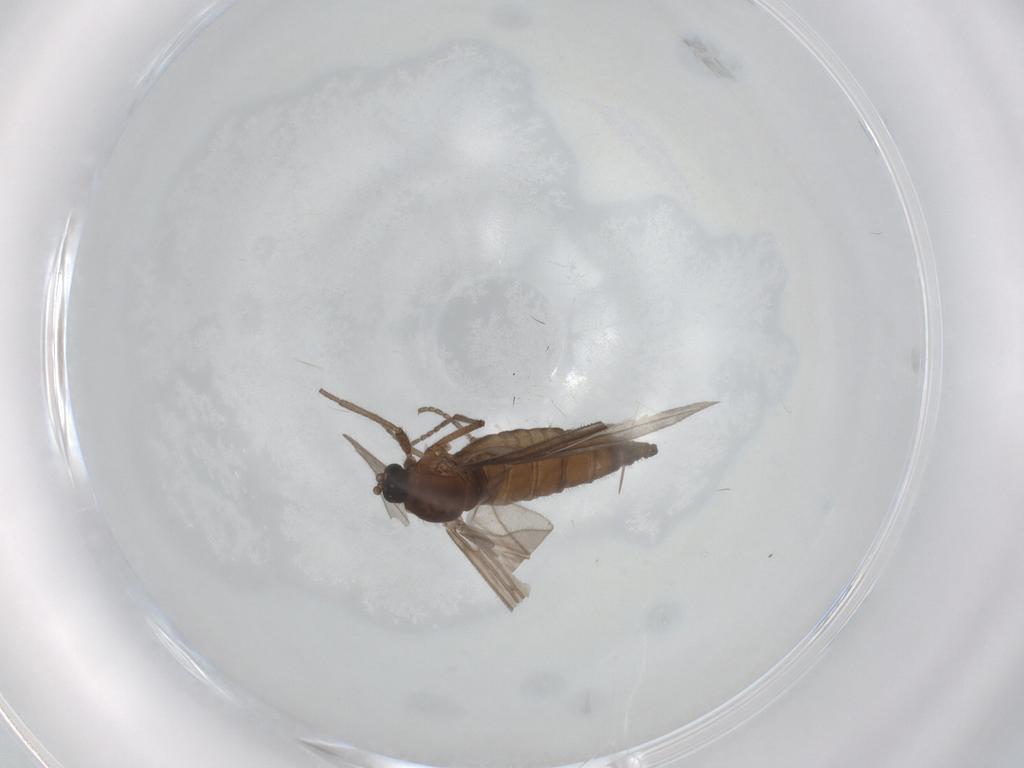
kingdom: Animalia
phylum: Arthropoda
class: Insecta
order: Diptera
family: Sciaridae
